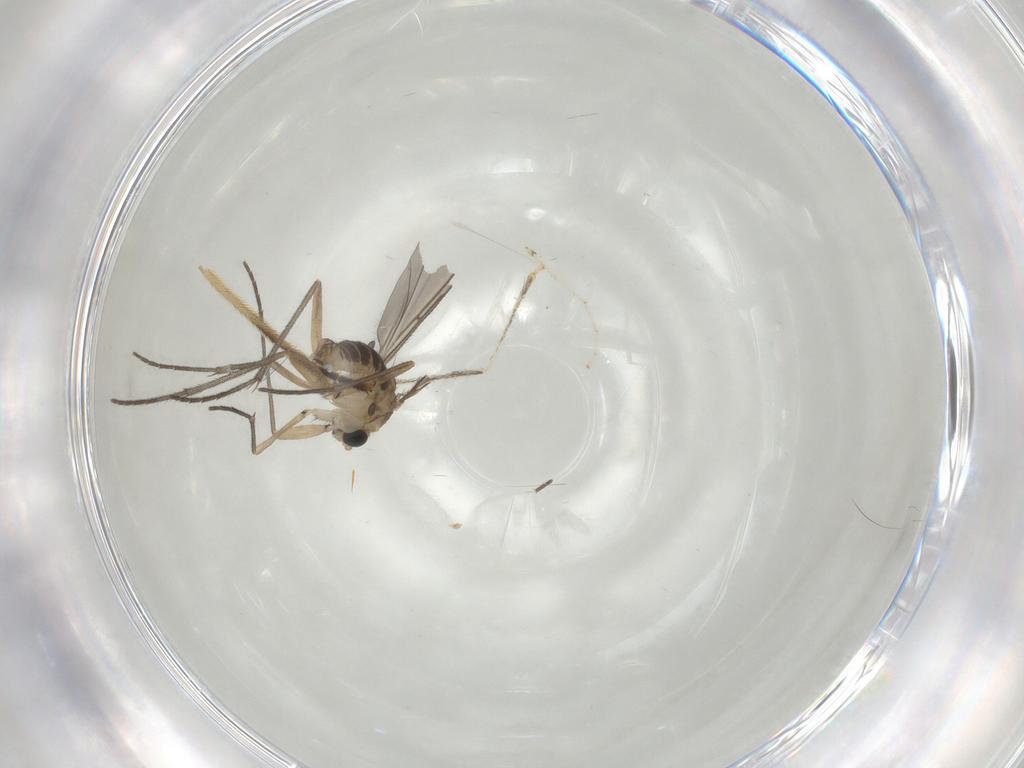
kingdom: Animalia
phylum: Arthropoda
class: Insecta
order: Diptera
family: Sciaridae
